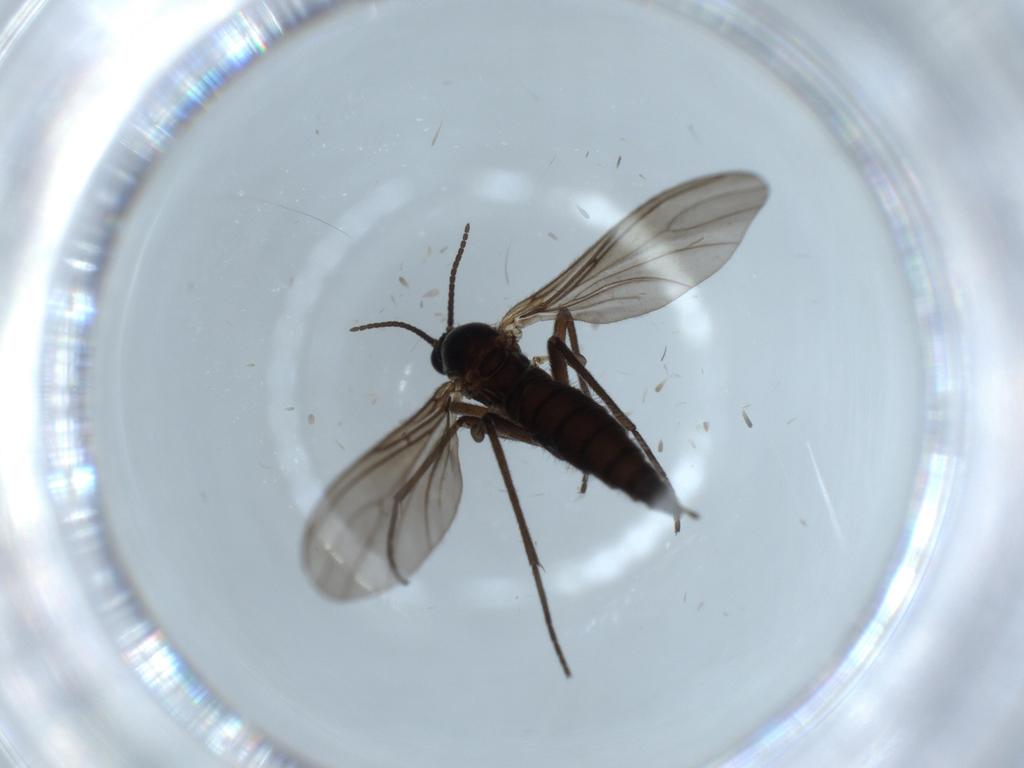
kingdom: Animalia
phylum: Arthropoda
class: Insecta
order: Diptera
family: Sciaridae
